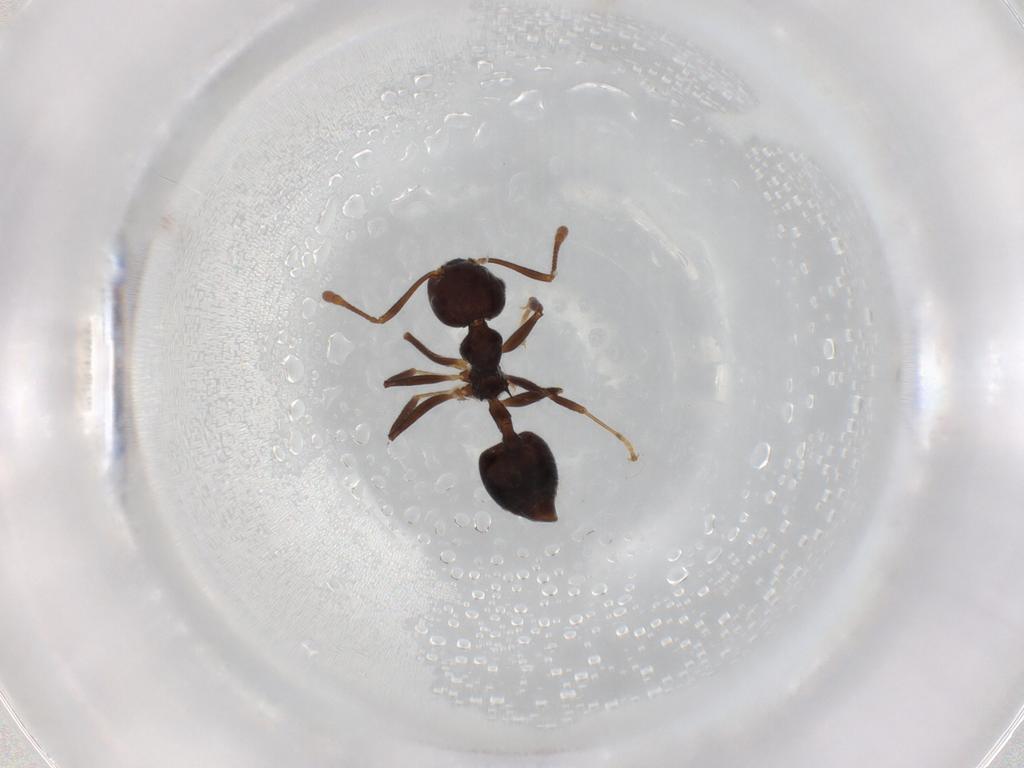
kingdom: Animalia
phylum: Arthropoda
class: Insecta
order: Hymenoptera
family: Formicidae
